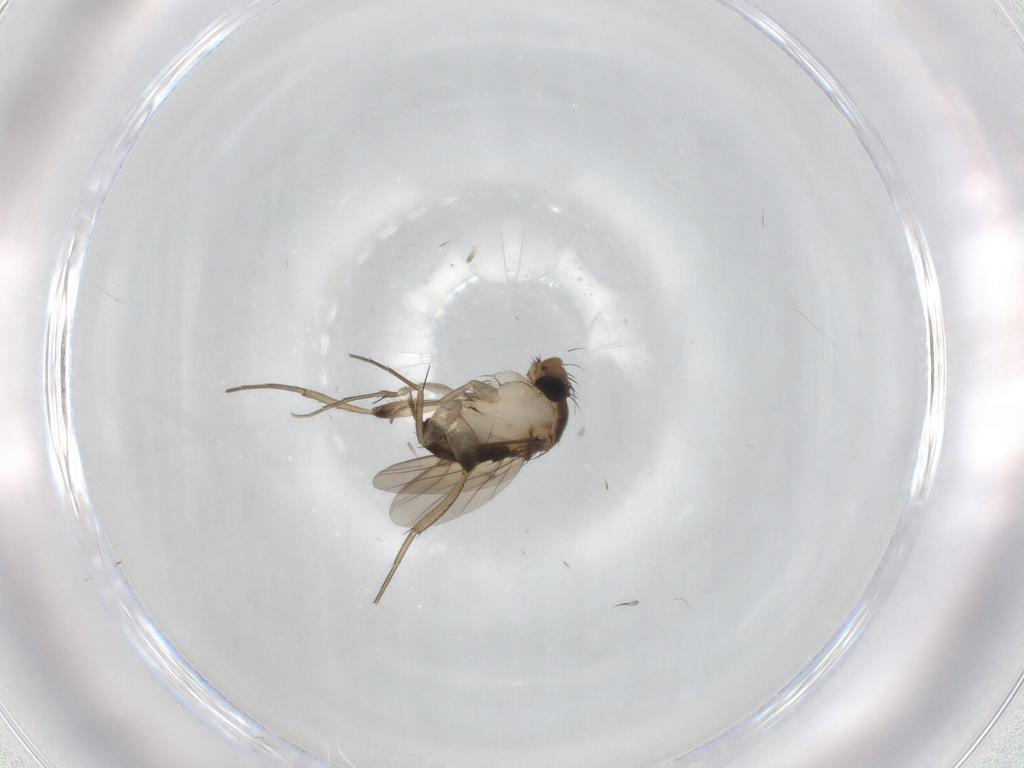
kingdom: Animalia
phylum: Arthropoda
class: Insecta
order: Diptera
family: Phoridae
